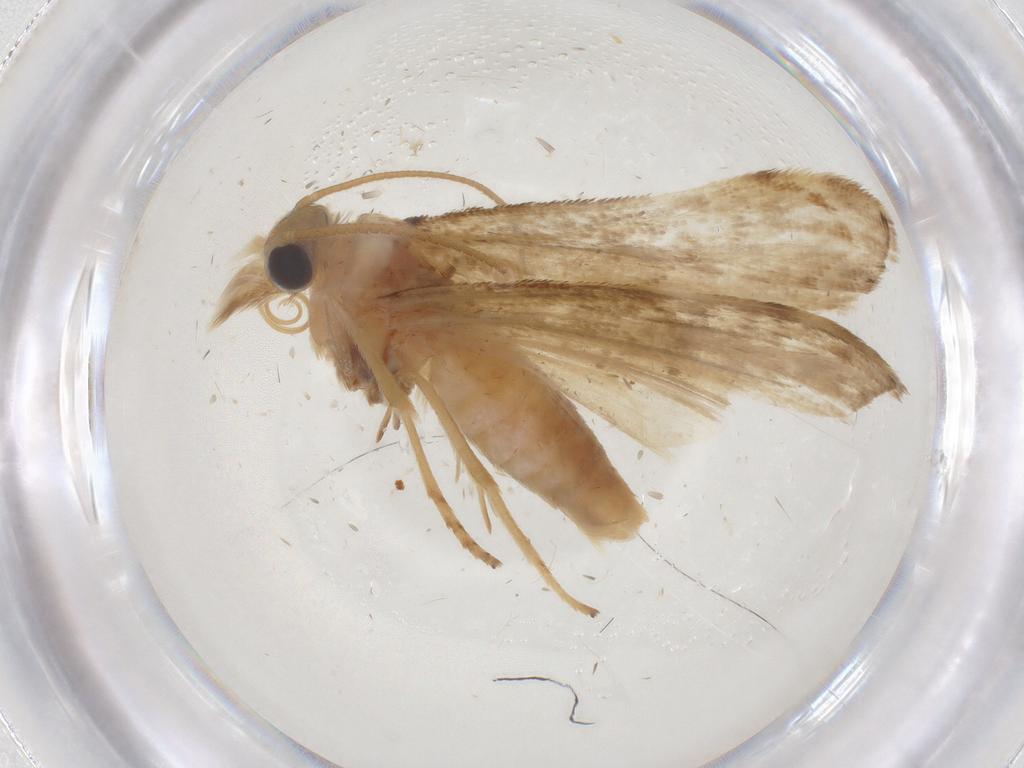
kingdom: Animalia
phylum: Arthropoda
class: Insecta
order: Lepidoptera
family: Pyralidae
